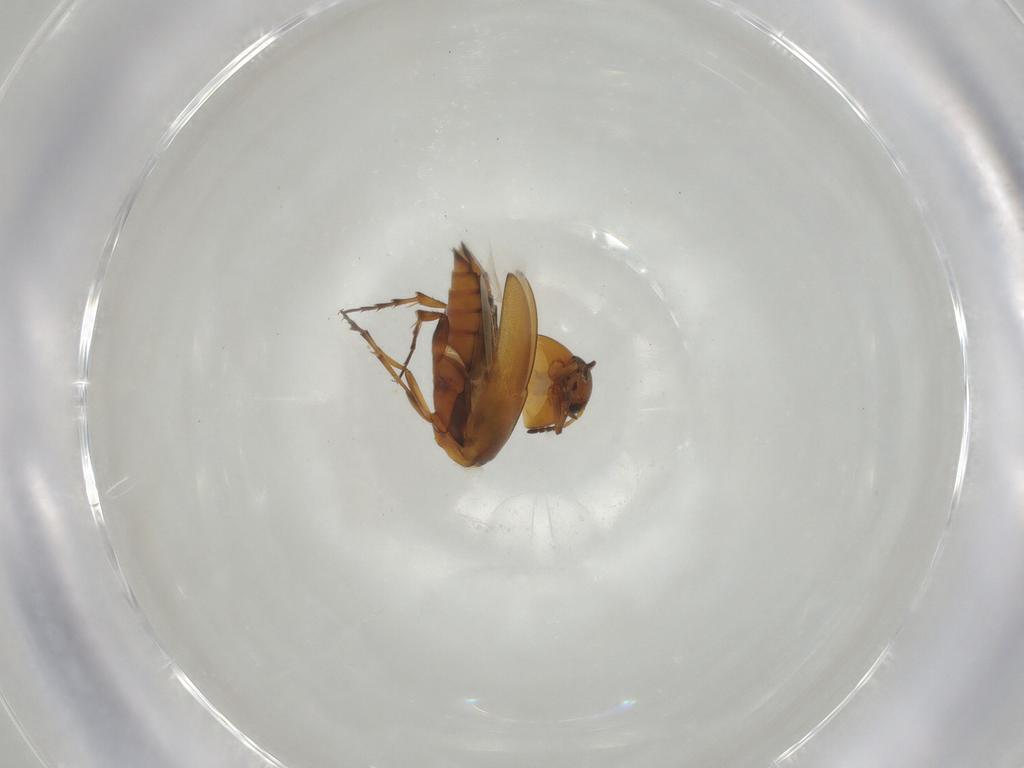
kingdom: Animalia
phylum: Arthropoda
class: Insecta
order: Coleoptera
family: Scraptiidae
